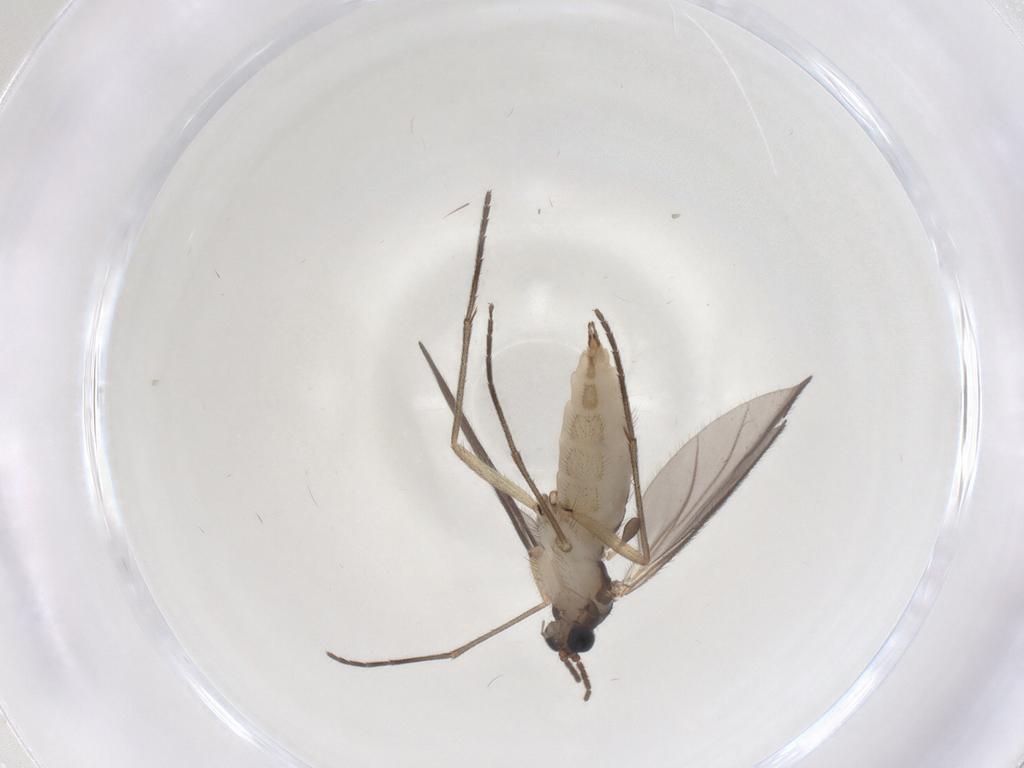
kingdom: Animalia
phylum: Arthropoda
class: Insecta
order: Diptera
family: Sciaridae
